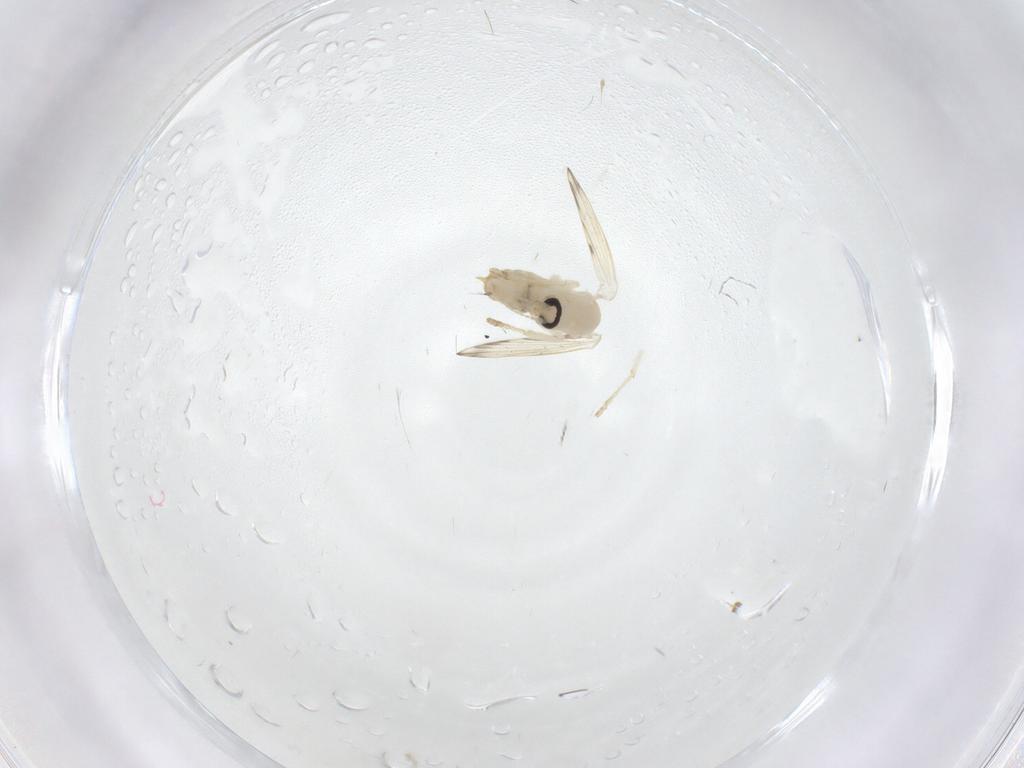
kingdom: Animalia
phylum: Arthropoda
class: Insecta
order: Diptera
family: Psychodidae
